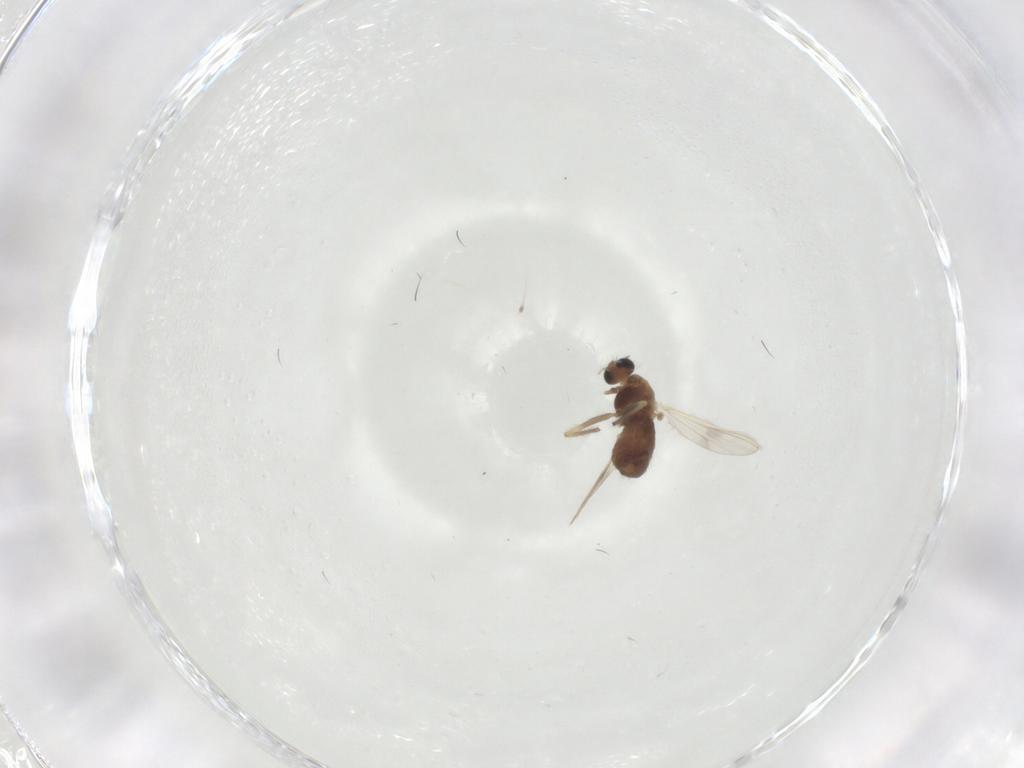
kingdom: Animalia
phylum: Arthropoda
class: Insecta
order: Diptera
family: Chironomidae
